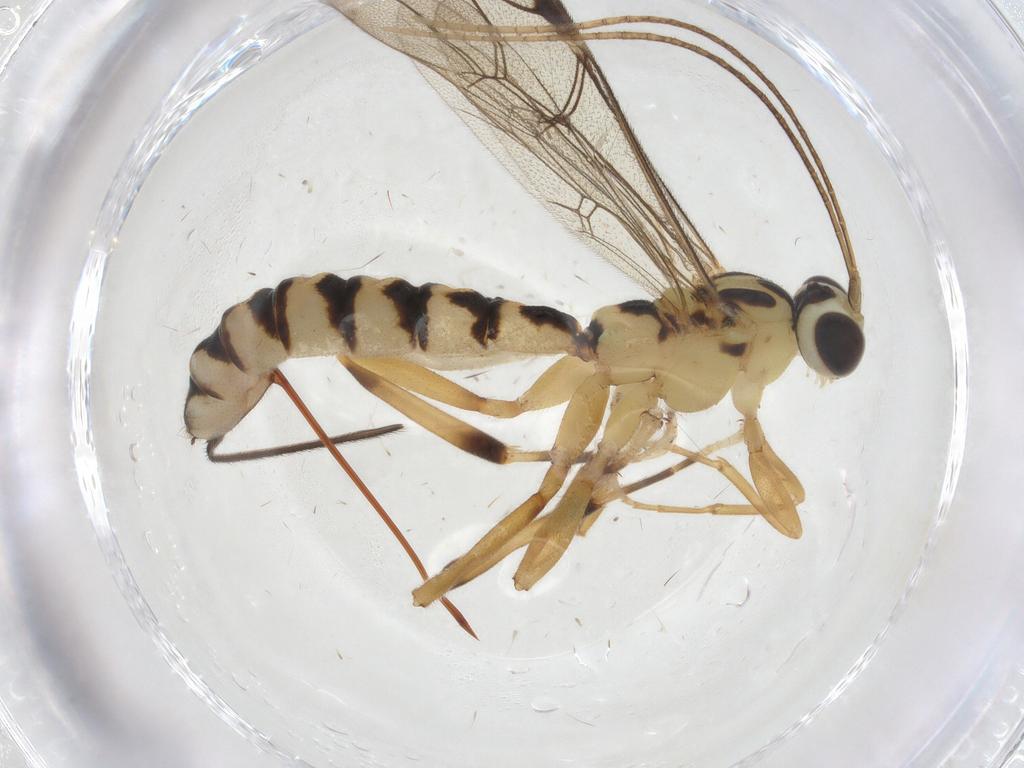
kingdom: Animalia
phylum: Arthropoda
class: Insecta
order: Hymenoptera
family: Ichneumonidae
